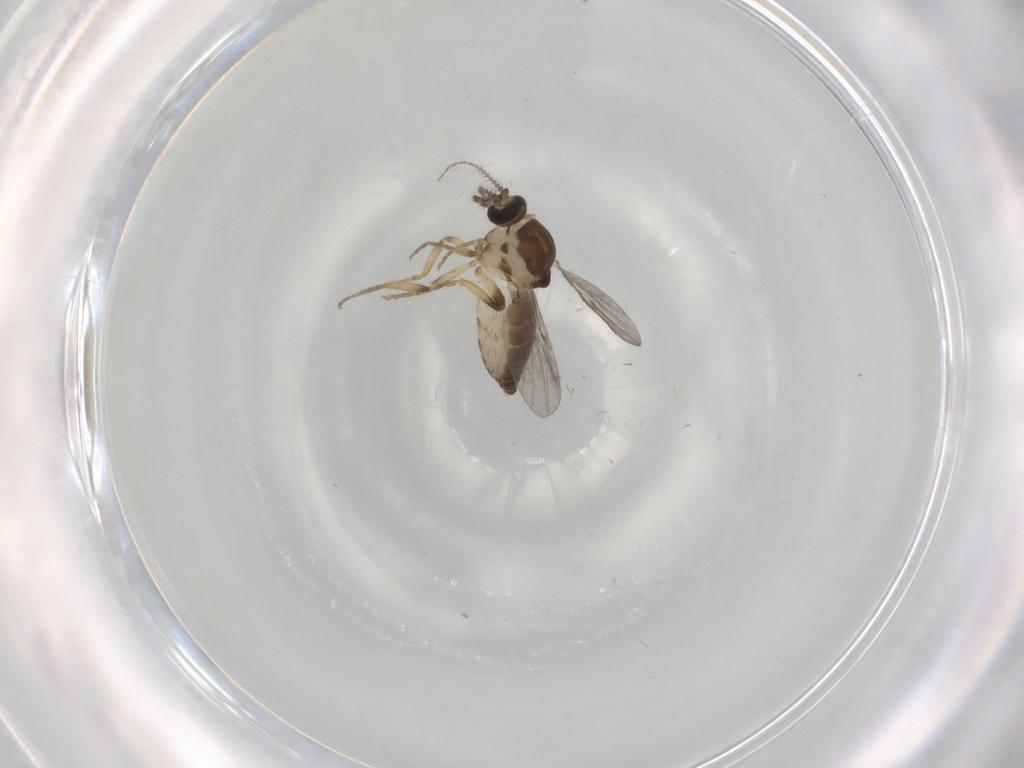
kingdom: Animalia
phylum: Arthropoda
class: Insecta
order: Diptera
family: Ceratopogonidae
